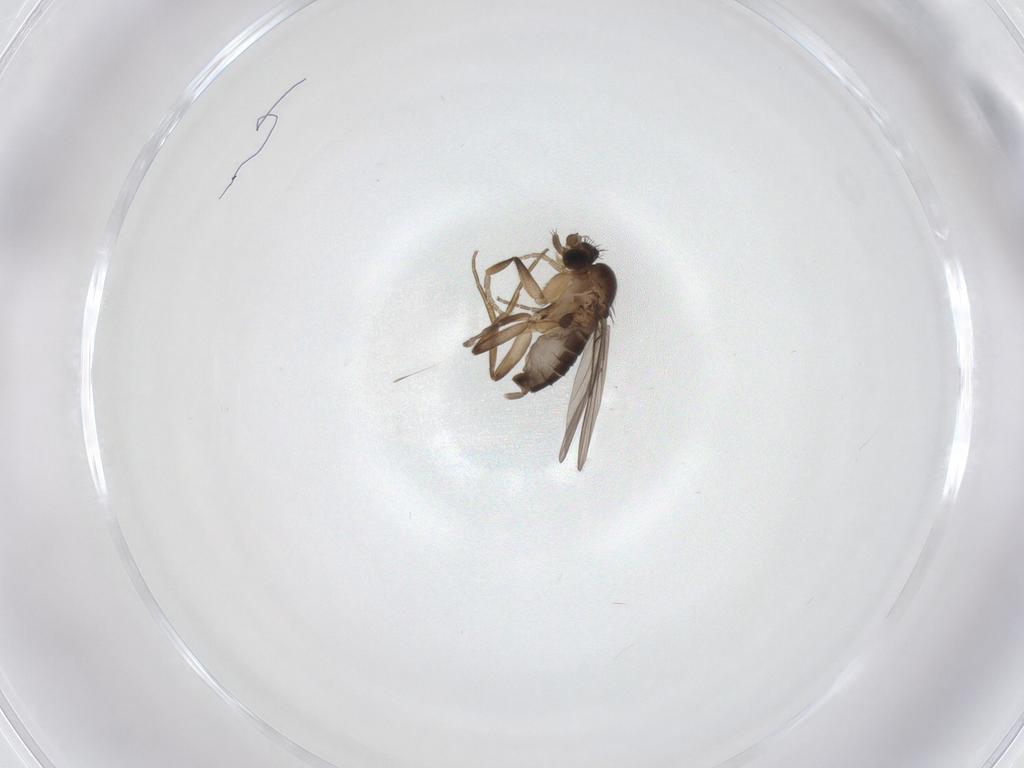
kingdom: Animalia
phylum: Arthropoda
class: Insecta
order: Diptera
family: Phoridae
